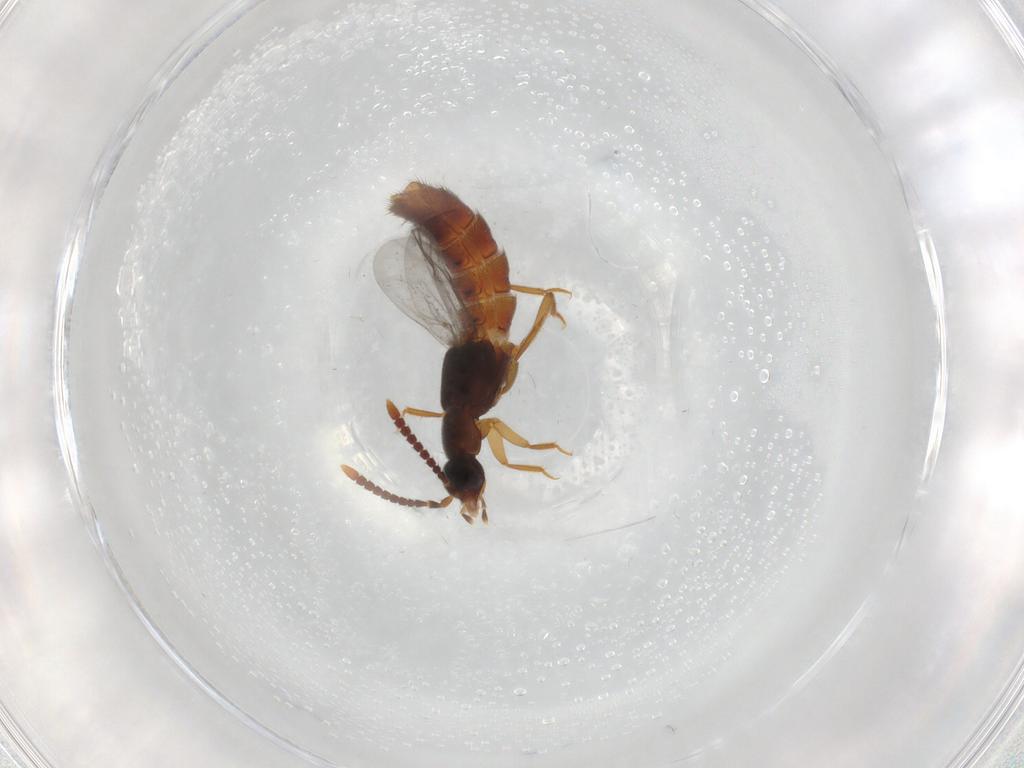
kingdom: Animalia
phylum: Arthropoda
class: Insecta
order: Coleoptera
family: Staphylinidae
